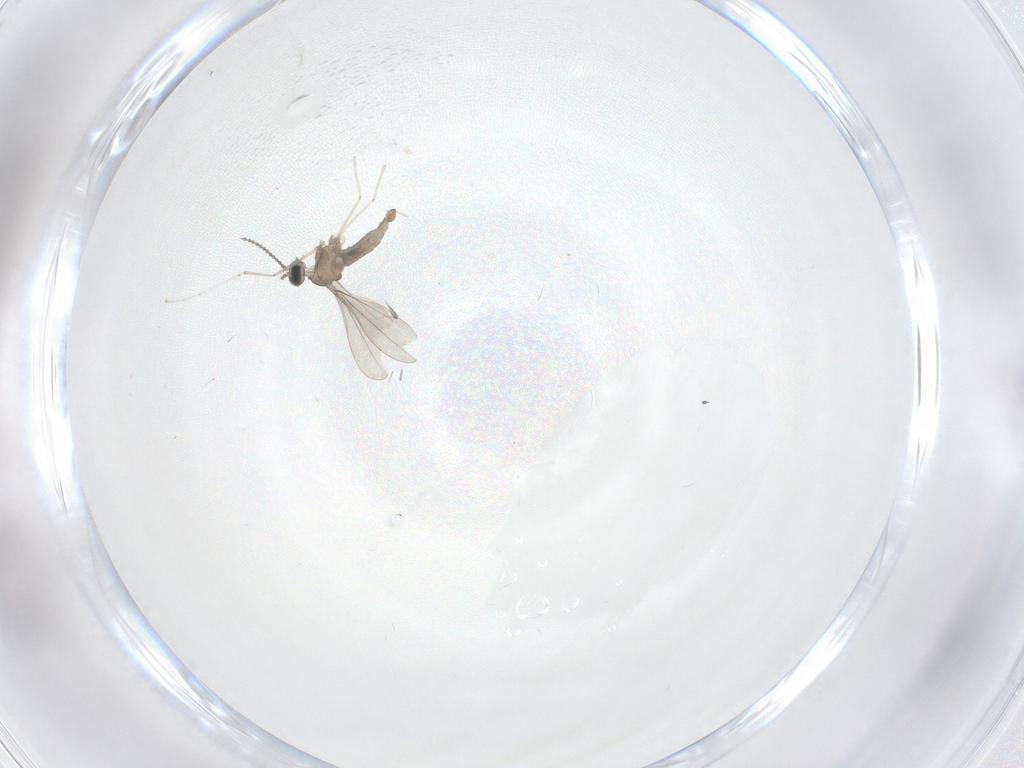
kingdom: Animalia
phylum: Arthropoda
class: Insecta
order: Diptera
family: Cecidomyiidae
